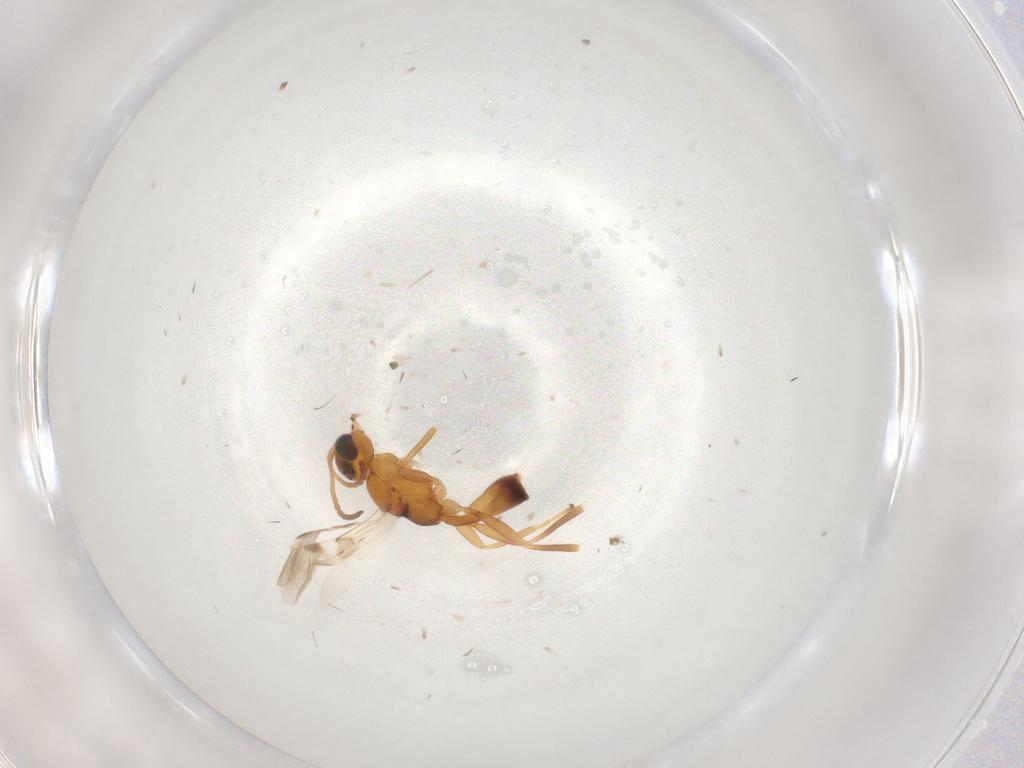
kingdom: Animalia
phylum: Arthropoda
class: Insecta
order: Hymenoptera
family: Braconidae
